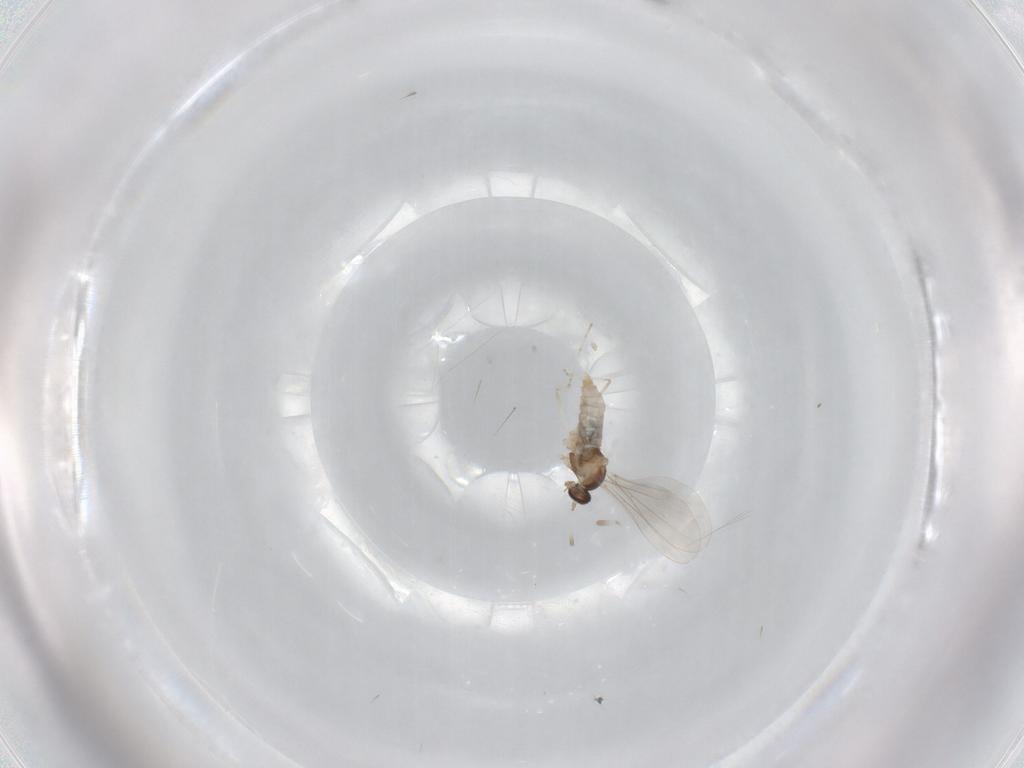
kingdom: Animalia
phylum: Arthropoda
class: Insecta
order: Diptera
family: Cecidomyiidae
